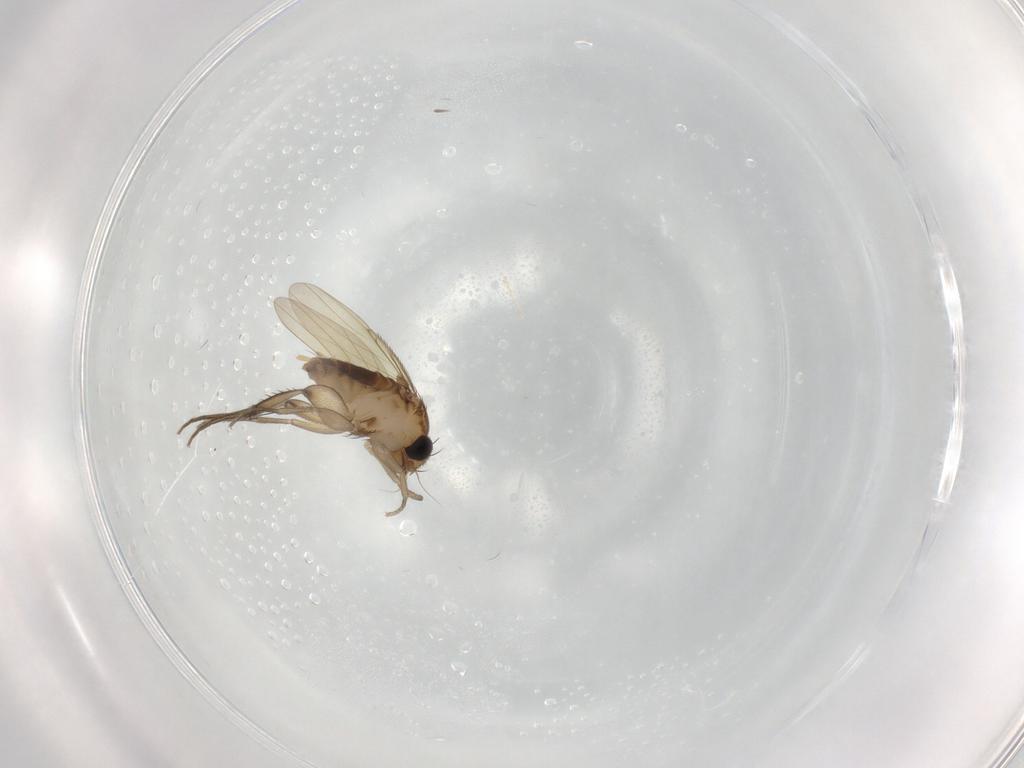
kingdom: Animalia
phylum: Arthropoda
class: Insecta
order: Diptera
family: Phoridae
